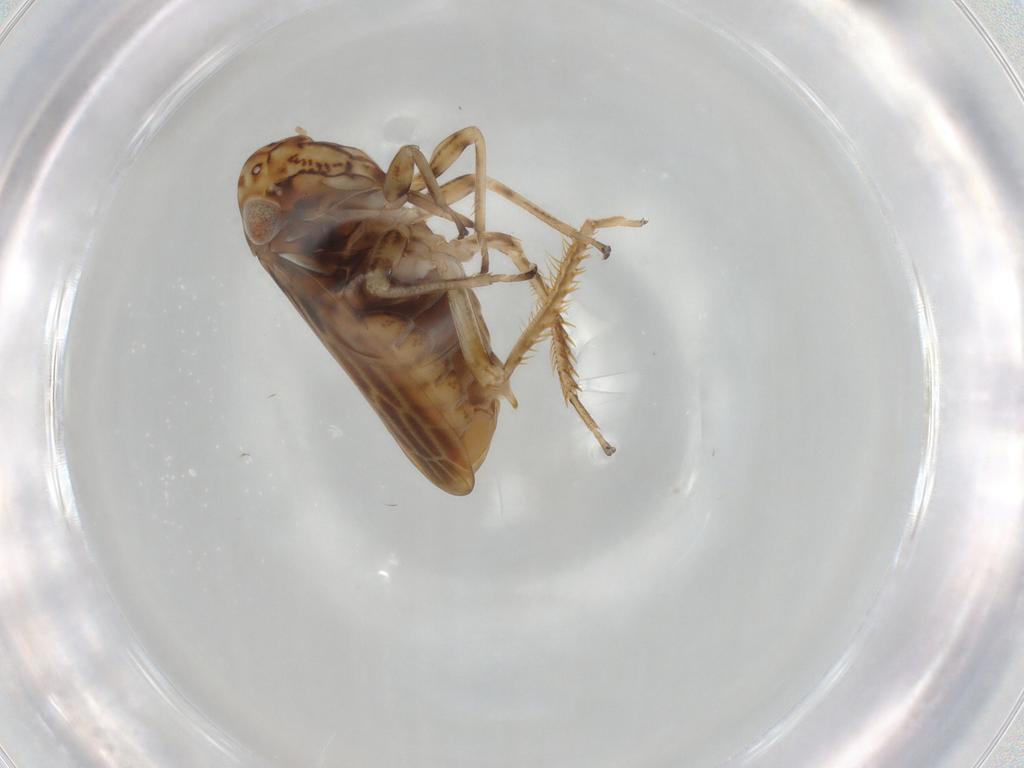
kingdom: Animalia
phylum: Arthropoda
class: Insecta
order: Hemiptera
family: Cicadellidae
